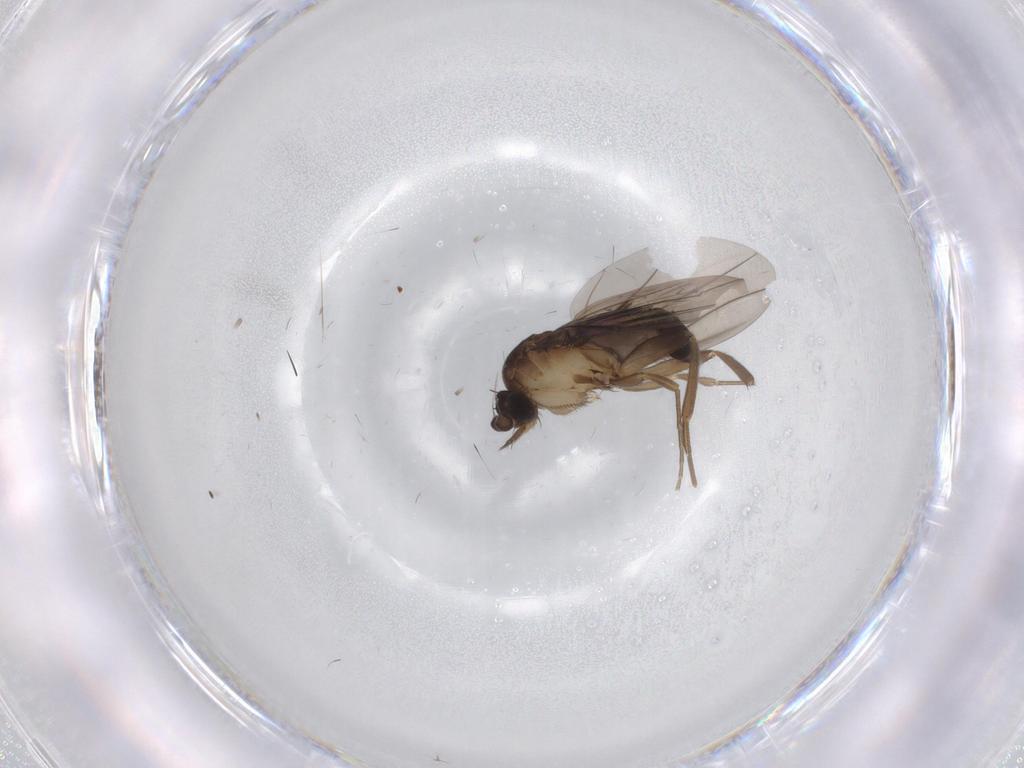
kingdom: Animalia
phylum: Arthropoda
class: Insecta
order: Diptera
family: Phoridae
